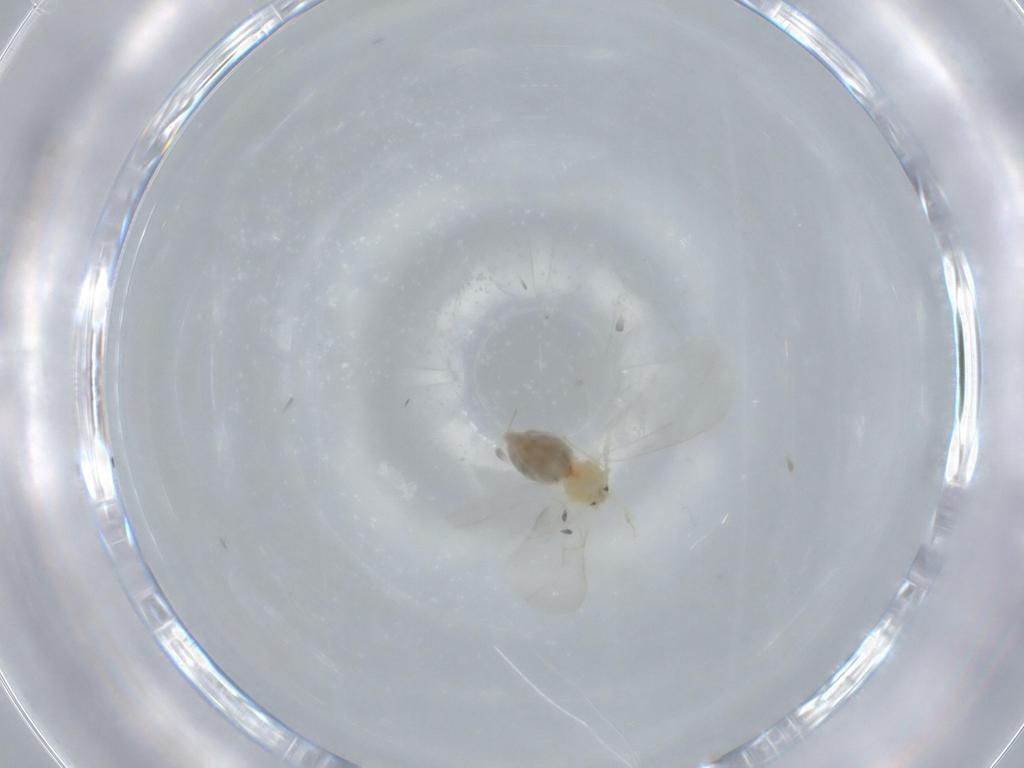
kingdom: Animalia
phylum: Arthropoda
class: Insecta
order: Hemiptera
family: Aleyrodidae
